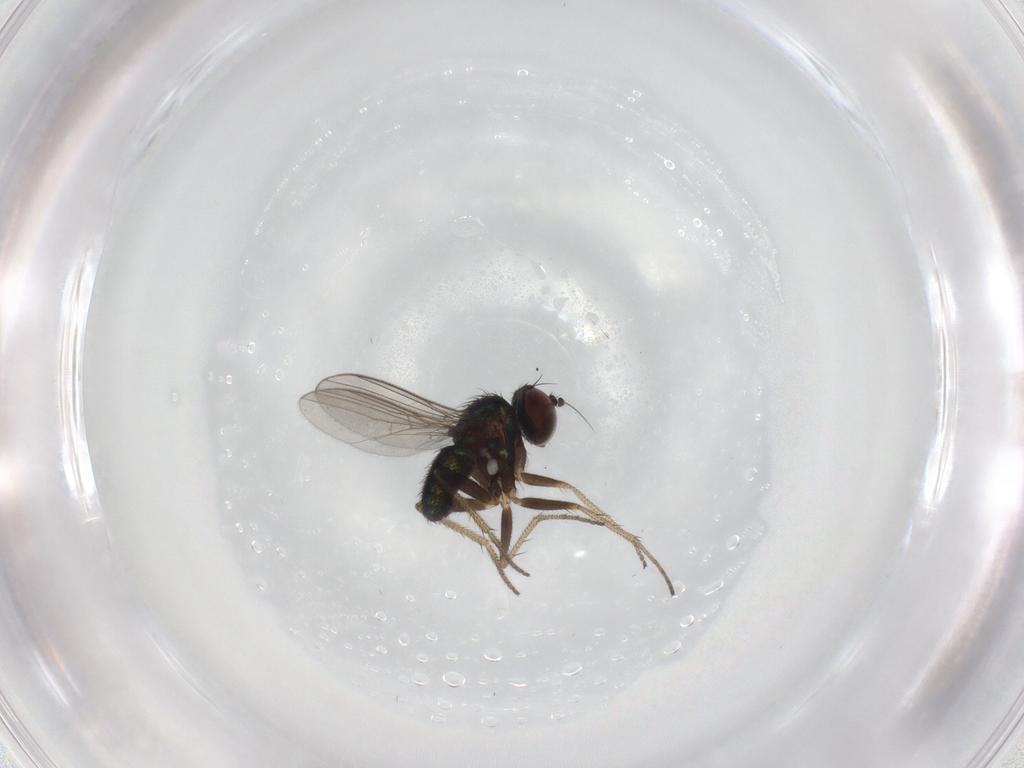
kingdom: Animalia
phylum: Arthropoda
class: Insecta
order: Diptera
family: Dolichopodidae
